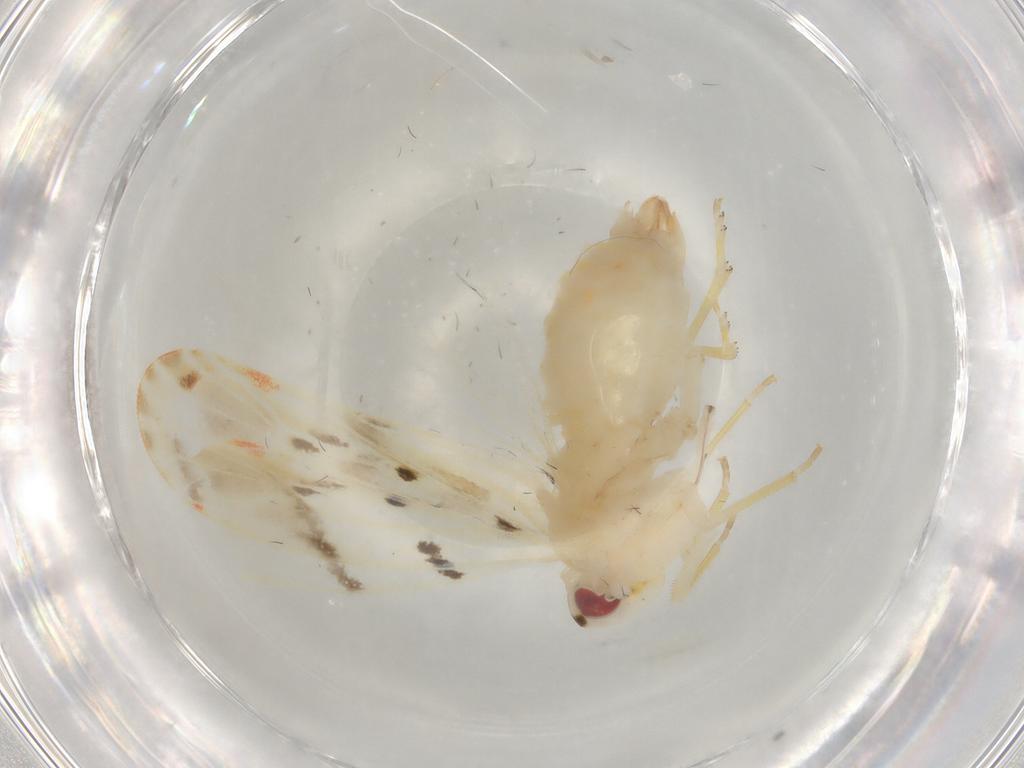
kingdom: Animalia
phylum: Arthropoda
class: Insecta
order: Hemiptera
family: Derbidae
